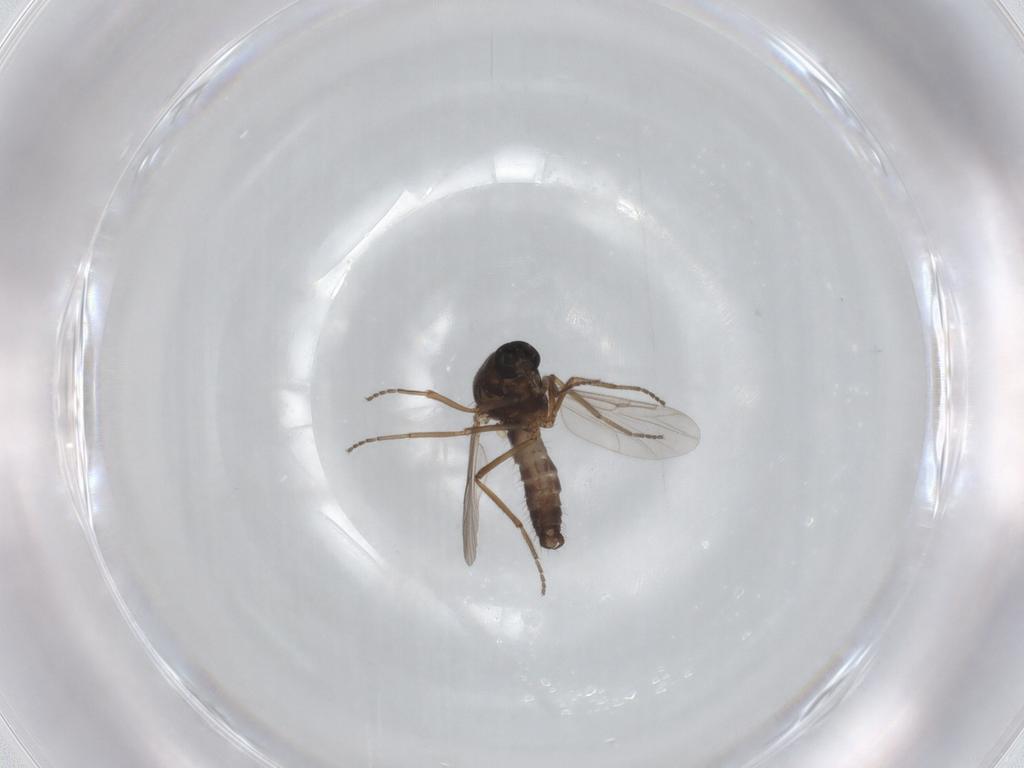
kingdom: Animalia
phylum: Arthropoda
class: Insecta
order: Diptera
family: Ceratopogonidae
